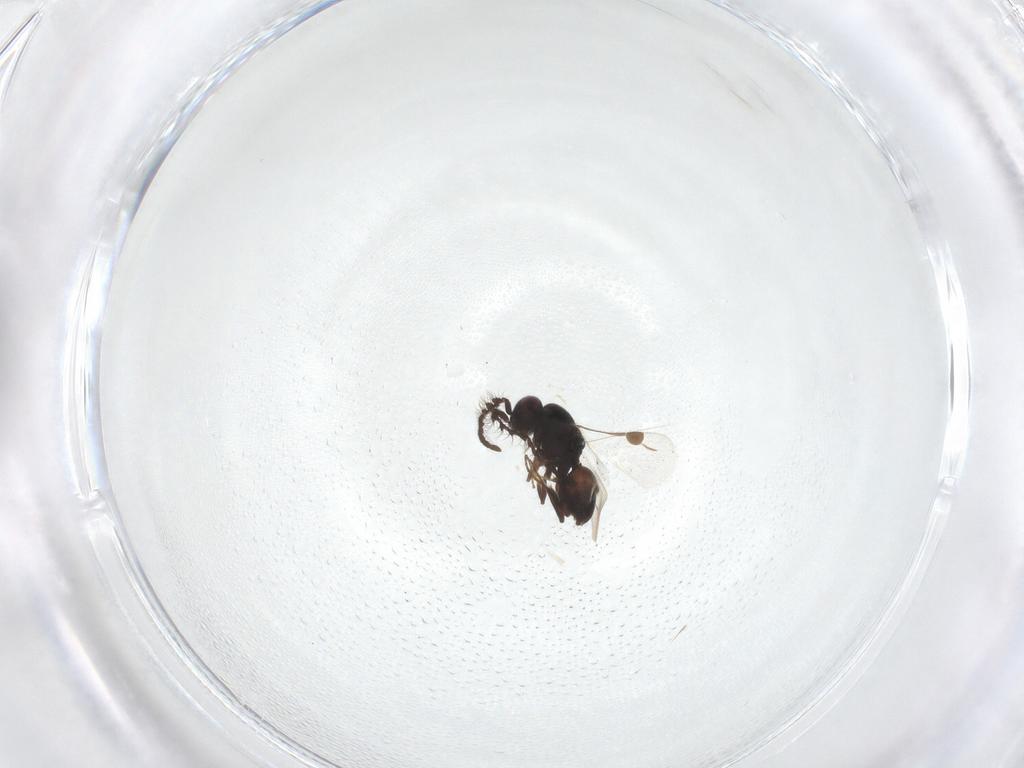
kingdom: Animalia
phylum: Arthropoda
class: Insecta
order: Hymenoptera
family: Megaspilidae
